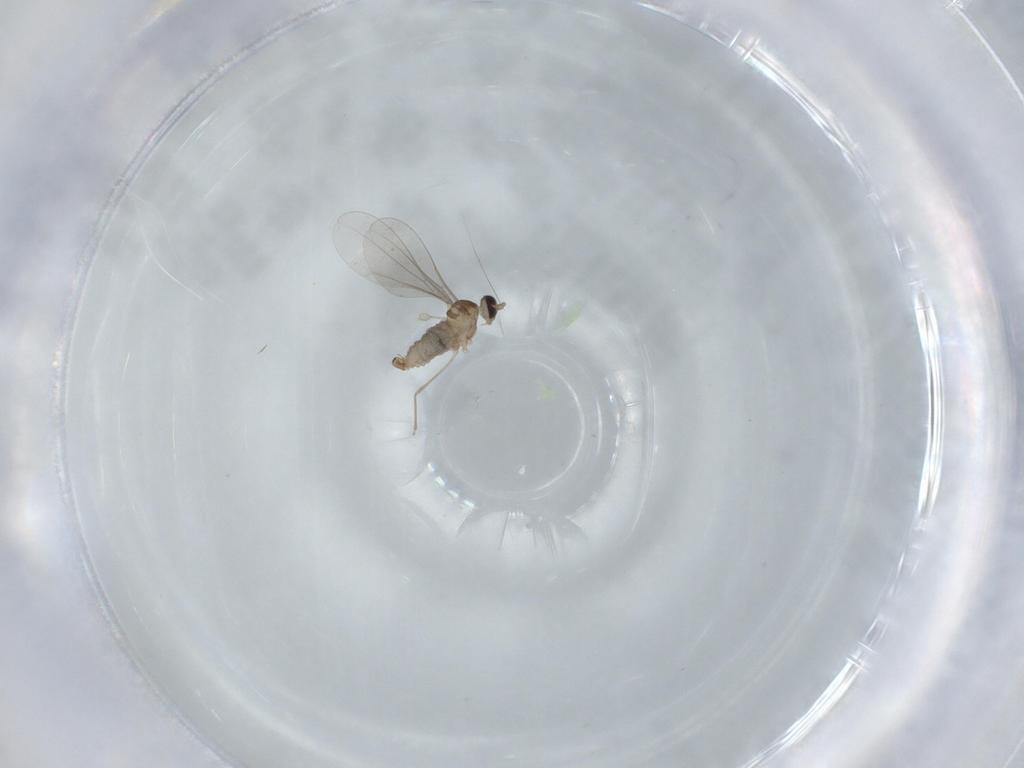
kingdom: Animalia
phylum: Arthropoda
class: Insecta
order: Diptera
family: Cecidomyiidae
